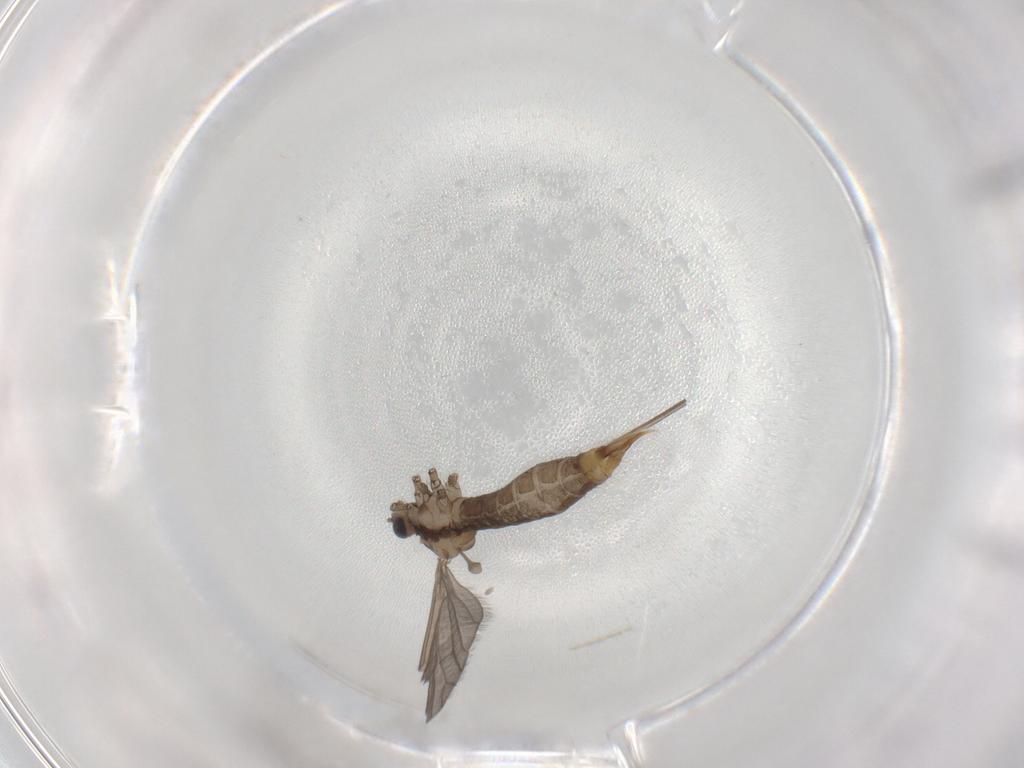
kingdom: Animalia
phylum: Arthropoda
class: Insecta
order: Diptera
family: Limoniidae
